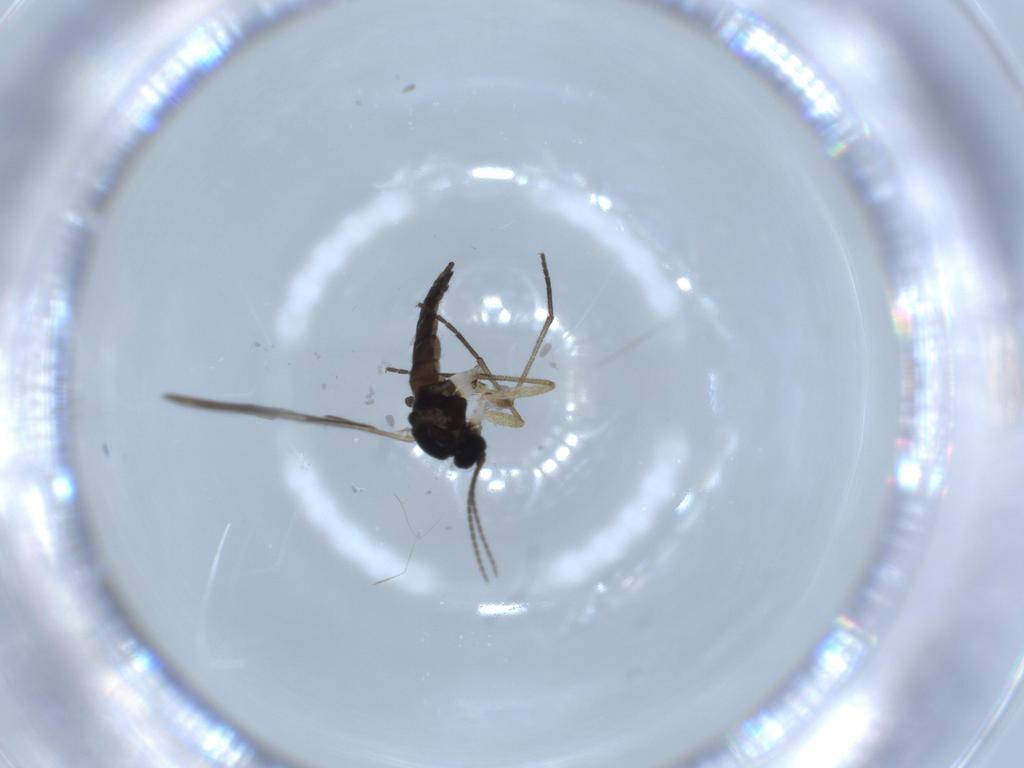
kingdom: Animalia
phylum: Arthropoda
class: Insecta
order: Diptera
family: Sciaridae
